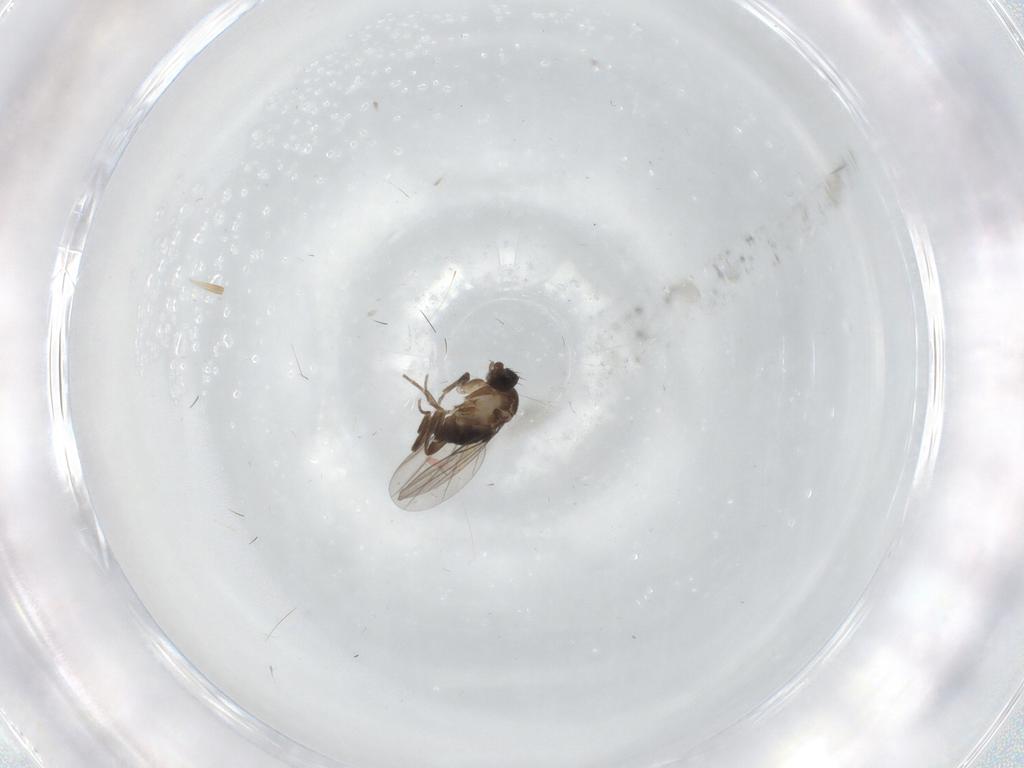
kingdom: Animalia
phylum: Arthropoda
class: Insecta
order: Diptera
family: Phoridae
